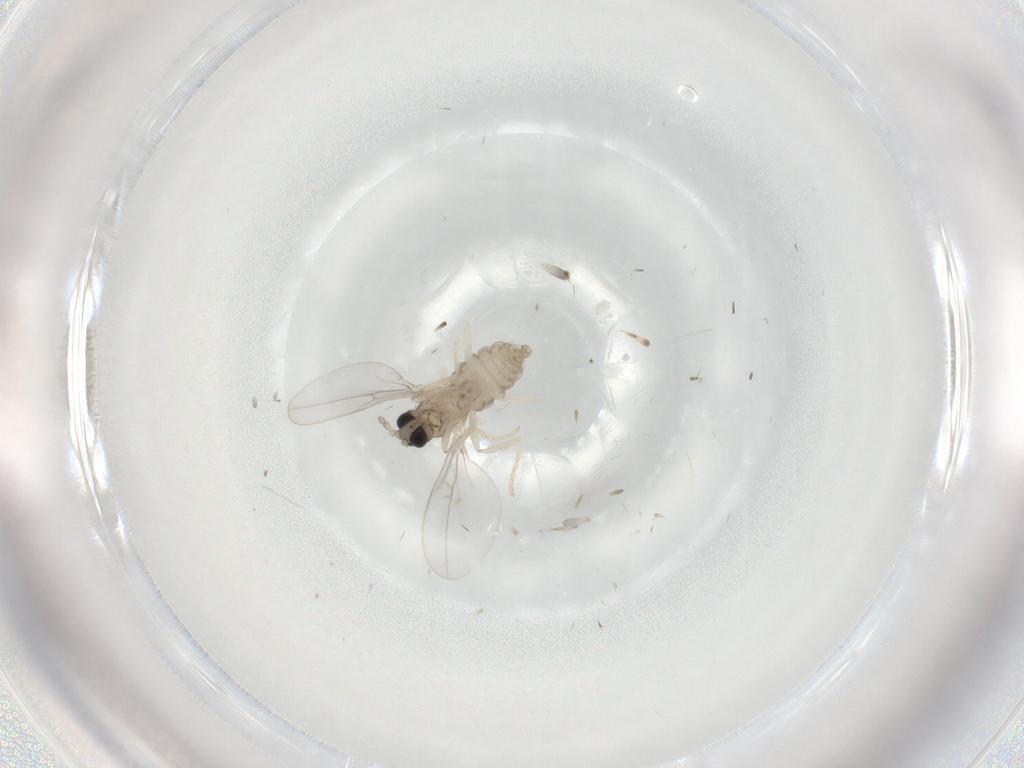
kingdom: Animalia
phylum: Arthropoda
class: Insecta
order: Diptera
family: Cecidomyiidae
